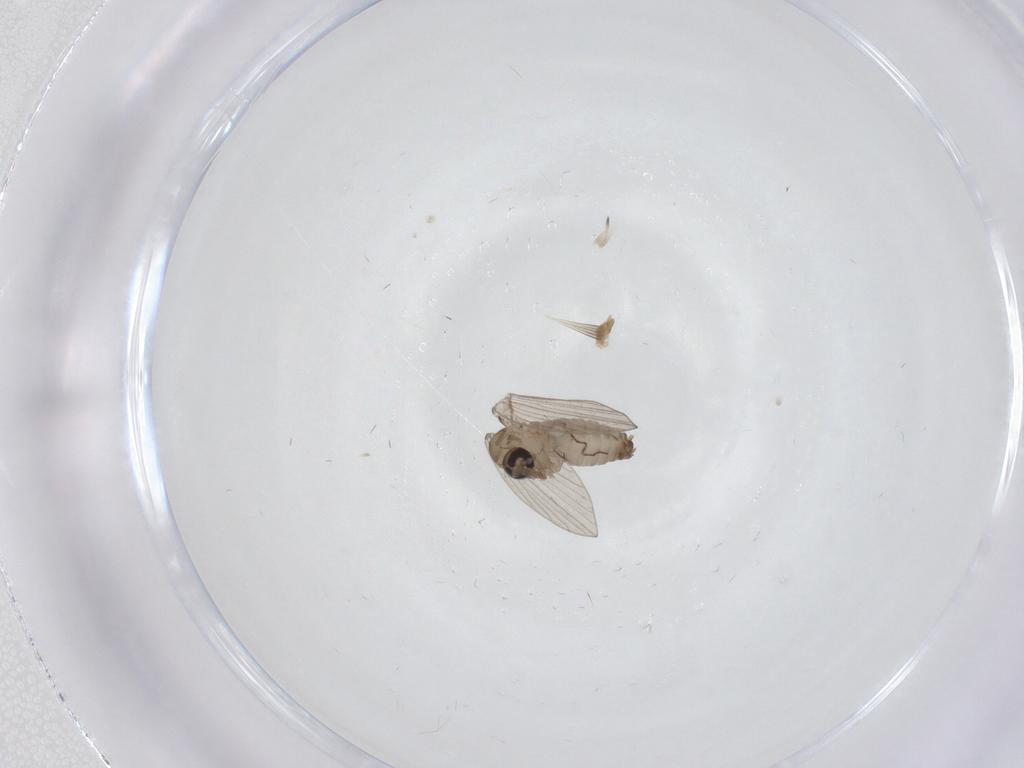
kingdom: Animalia
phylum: Arthropoda
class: Insecta
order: Diptera
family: Psychodidae
